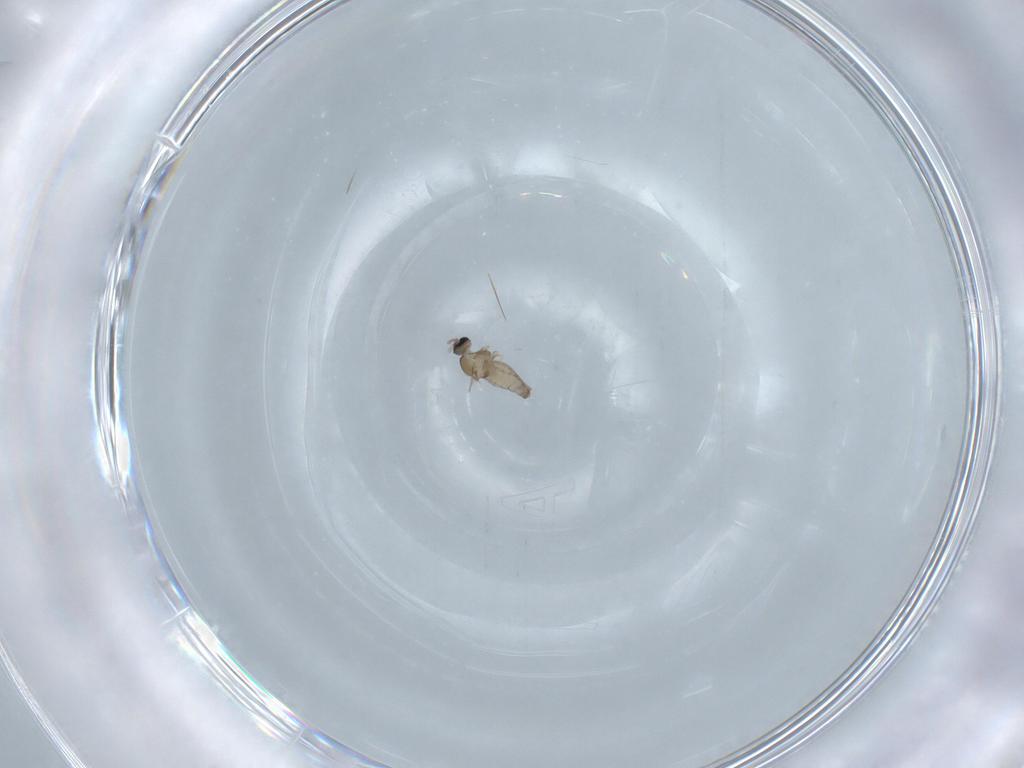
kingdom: Animalia
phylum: Arthropoda
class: Insecta
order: Diptera
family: Cecidomyiidae
